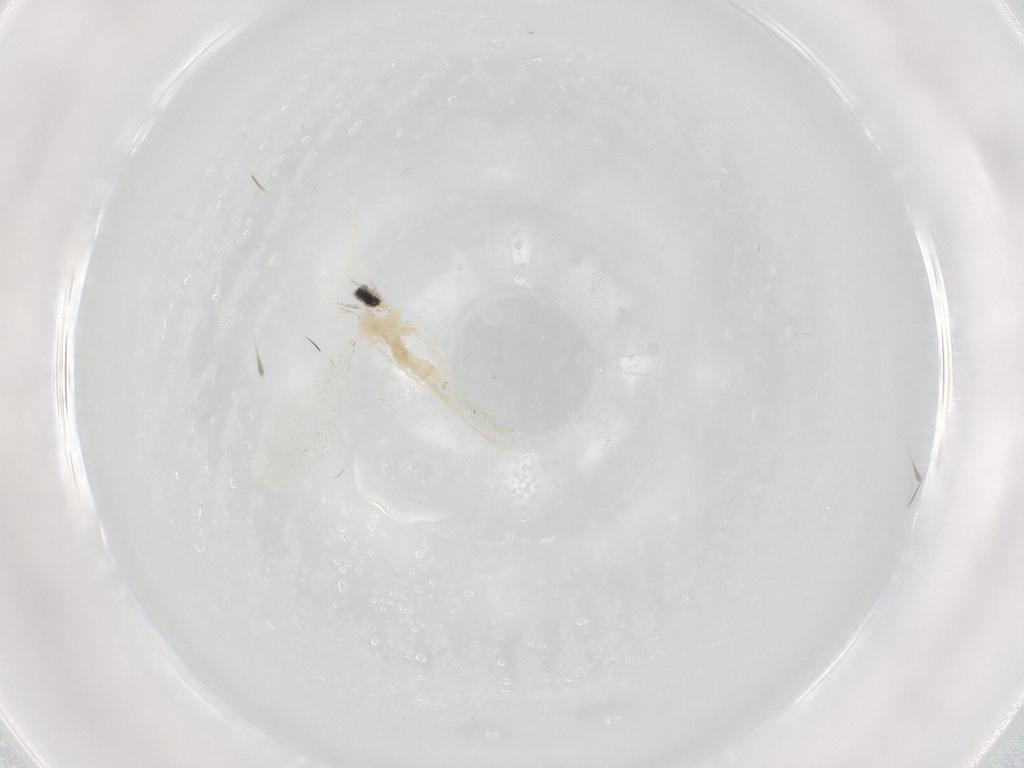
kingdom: Animalia
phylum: Arthropoda
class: Insecta
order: Diptera
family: Cecidomyiidae
